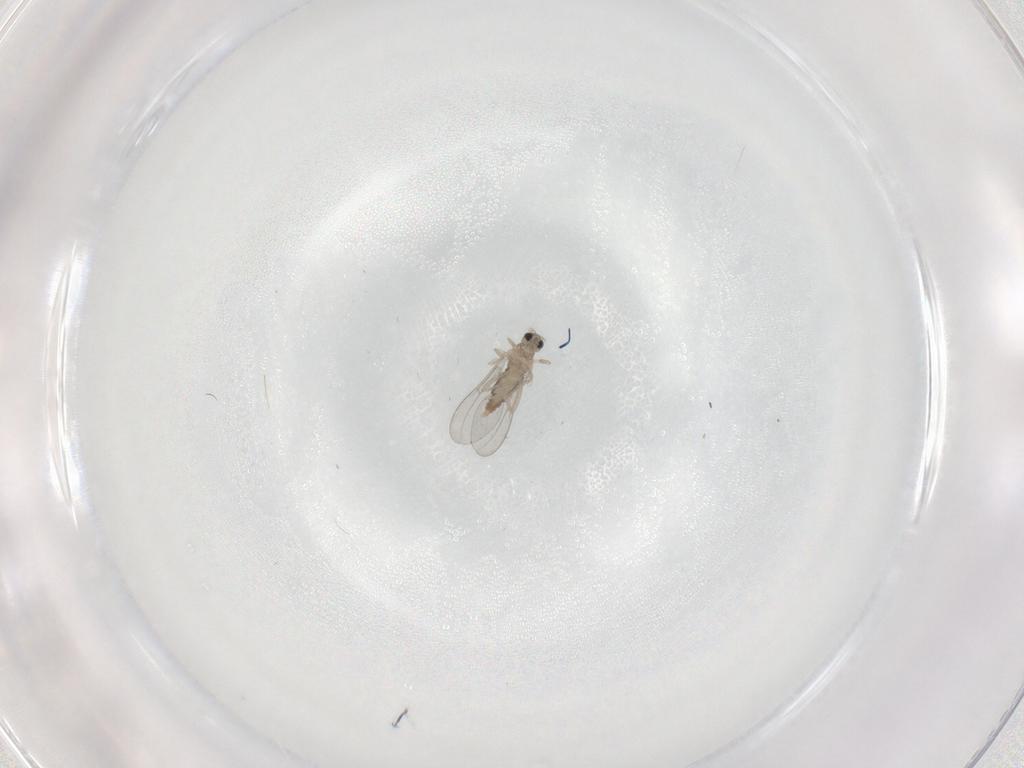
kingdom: Animalia
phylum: Arthropoda
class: Insecta
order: Diptera
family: Cecidomyiidae
